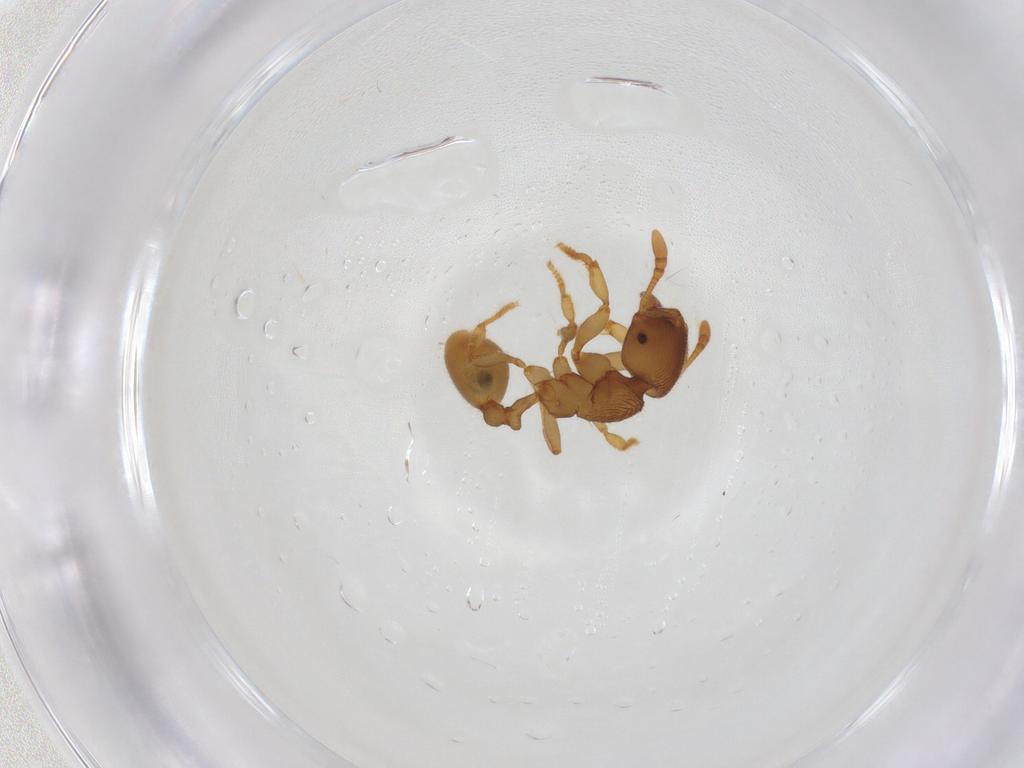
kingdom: Animalia
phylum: Arthropoda
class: Insecta
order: Hymenoptera
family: Formicidae
